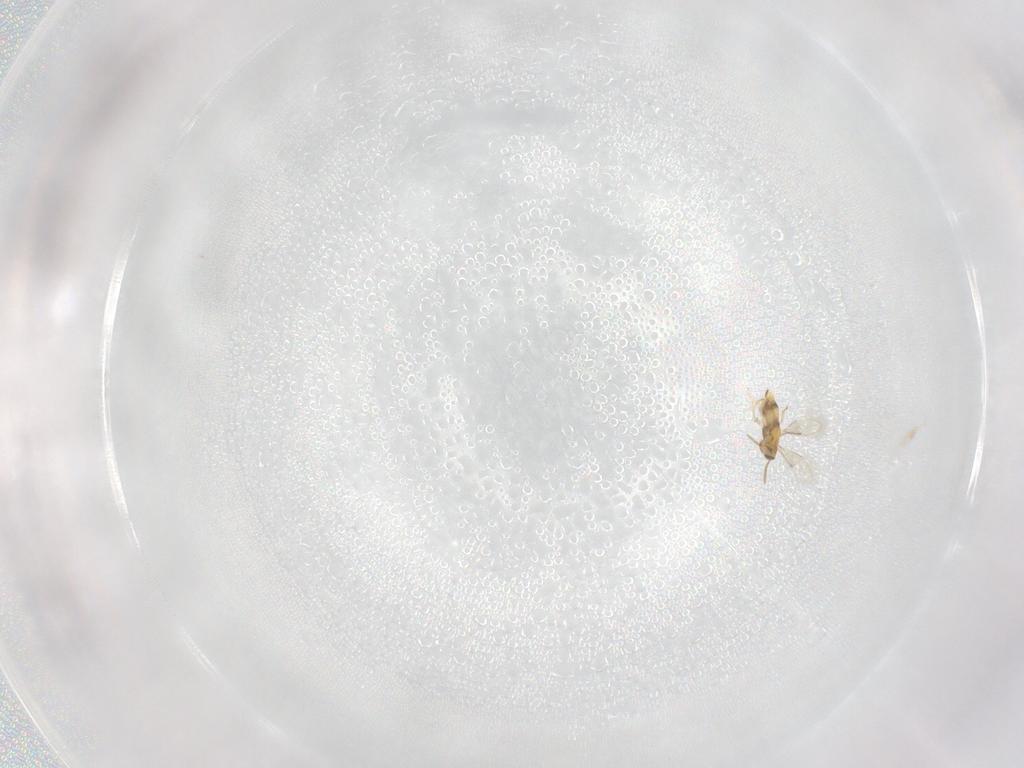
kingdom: Animalia
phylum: Arthropoda
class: Insecta
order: Hymenoptera
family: Aphelinidae
